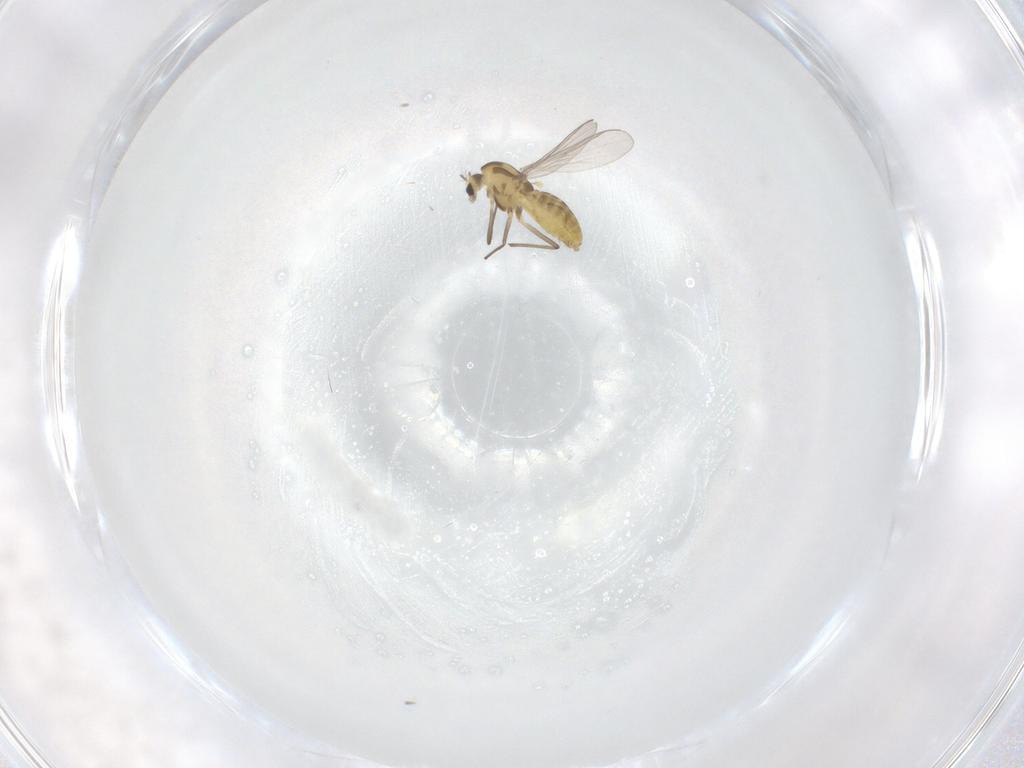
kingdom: Animalia
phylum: Arthropoda
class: Insecta
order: Diptera
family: Chironomidae
